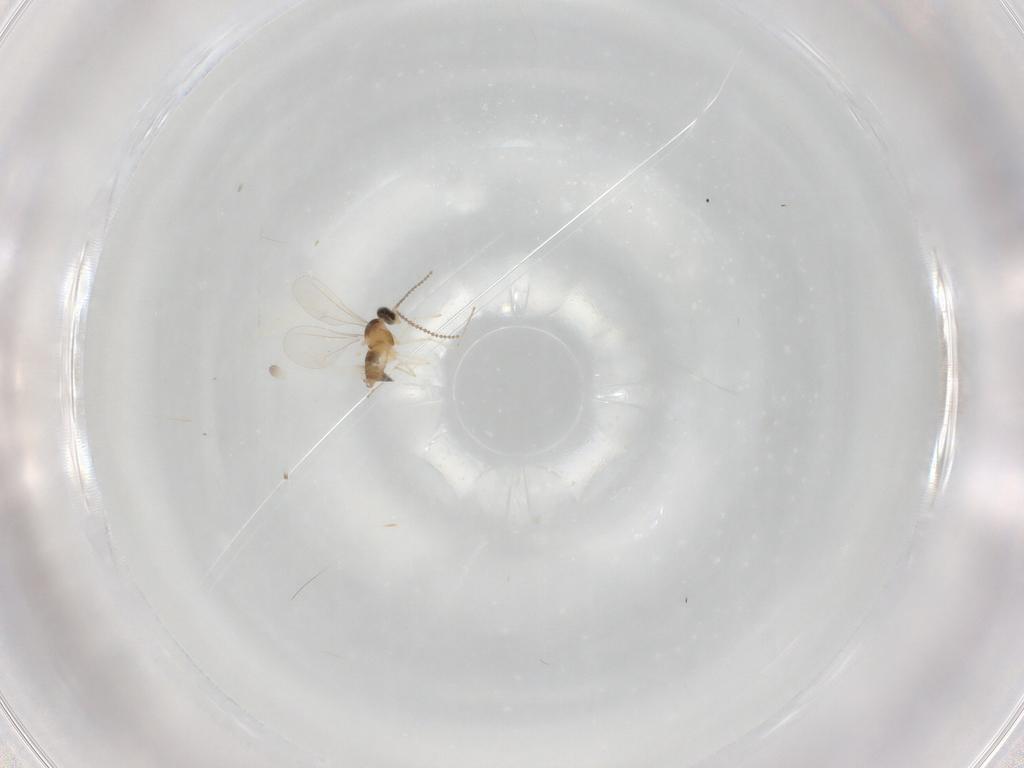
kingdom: Animalia
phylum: Arthropoda
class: Insecta
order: Diptera
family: Cecidomyiidae
